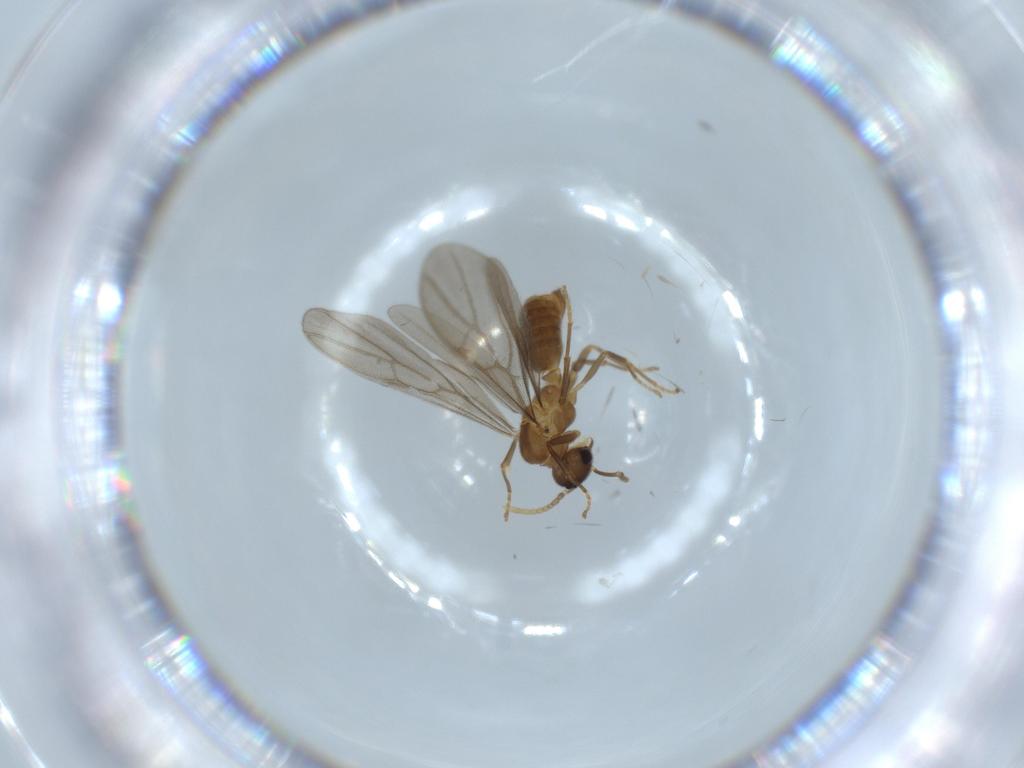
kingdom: Animalia
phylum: Arthropoda
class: Insecta
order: Hymenoptera
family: Formicidae
